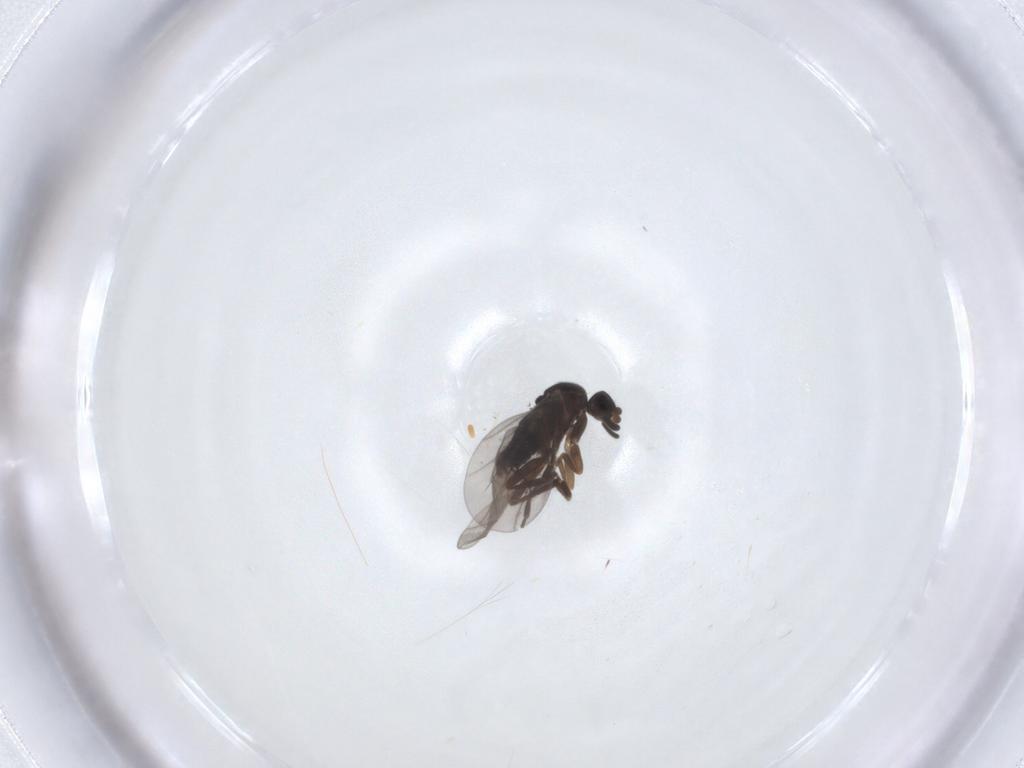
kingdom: Animalia
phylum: Arthropoda
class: Insecta
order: Diptera
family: Phoridae
